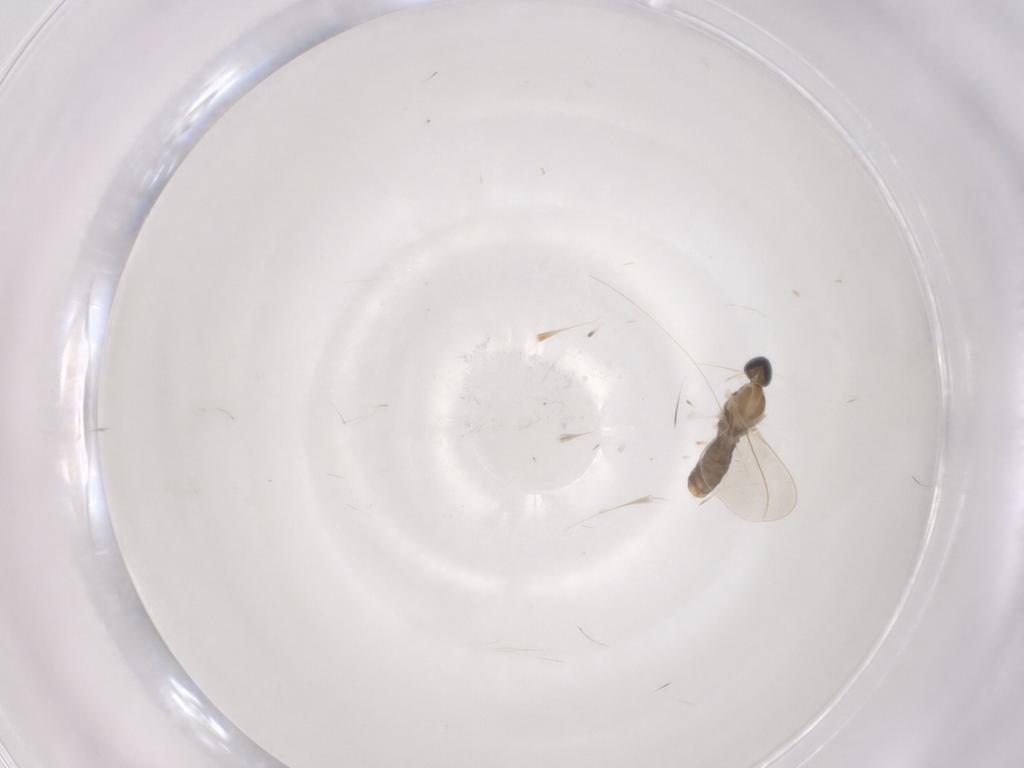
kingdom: Animalia
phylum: Arthropoda
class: Insecta
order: Diptera
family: Cecidomyiidae
